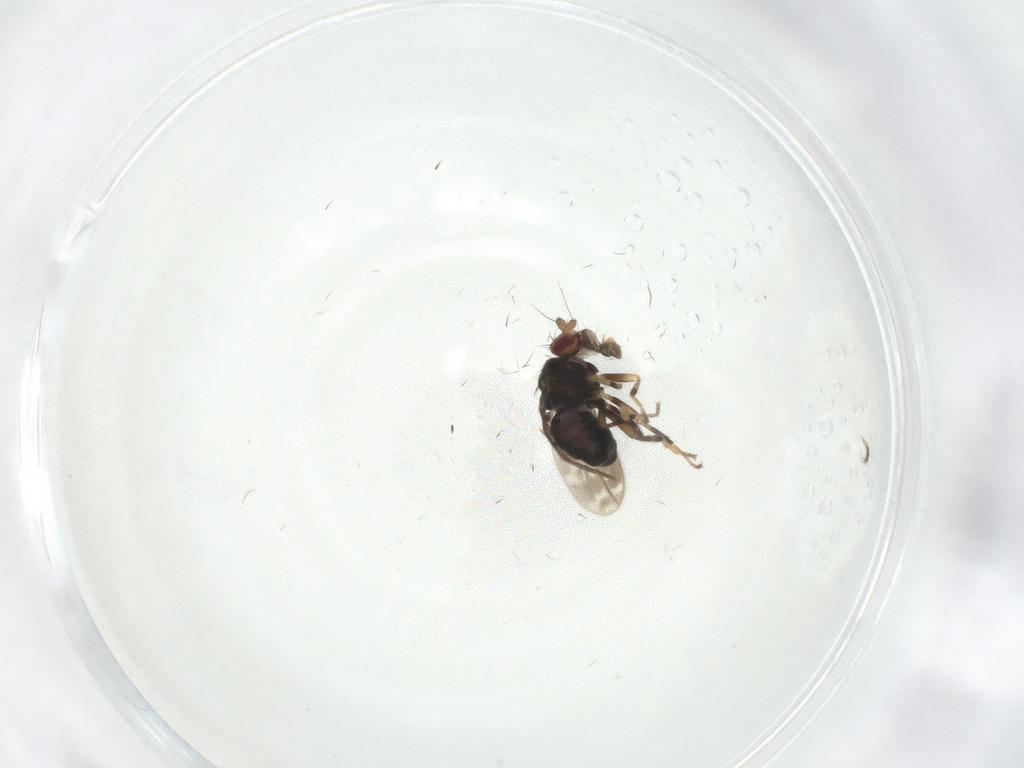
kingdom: Animalia
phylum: Arthropoda
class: Insecta
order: Diptera
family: Sphaeroceridae
